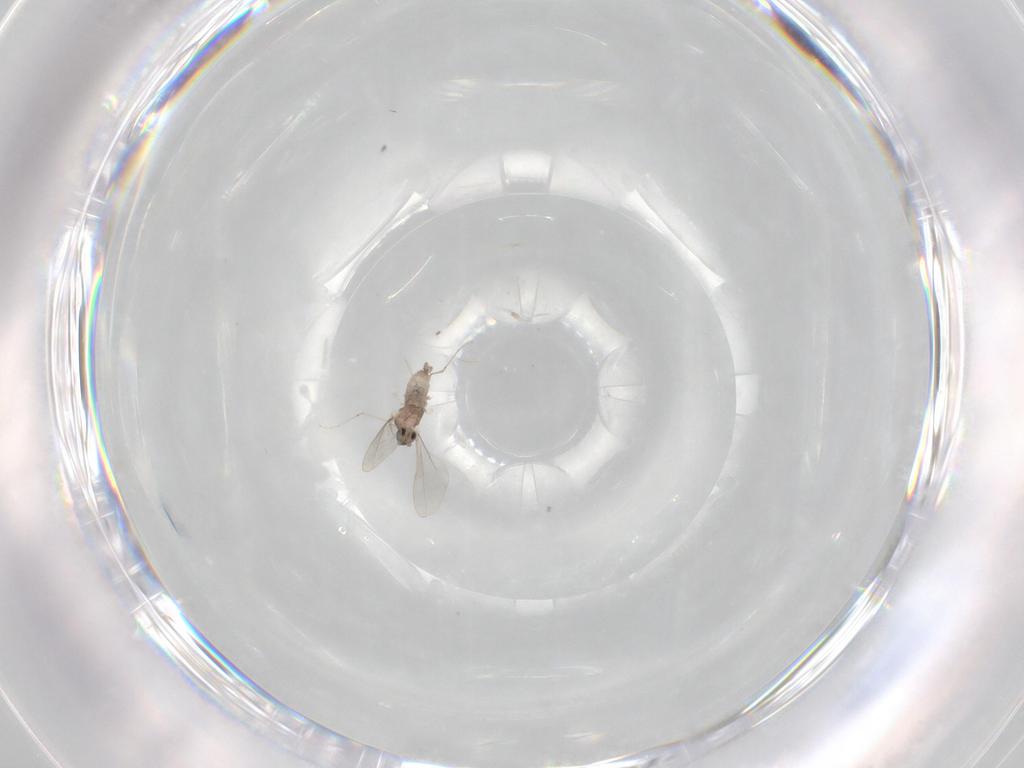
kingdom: Animalia
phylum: Arthropoda
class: Insecta
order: Diptera
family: Cecidomyiidae
